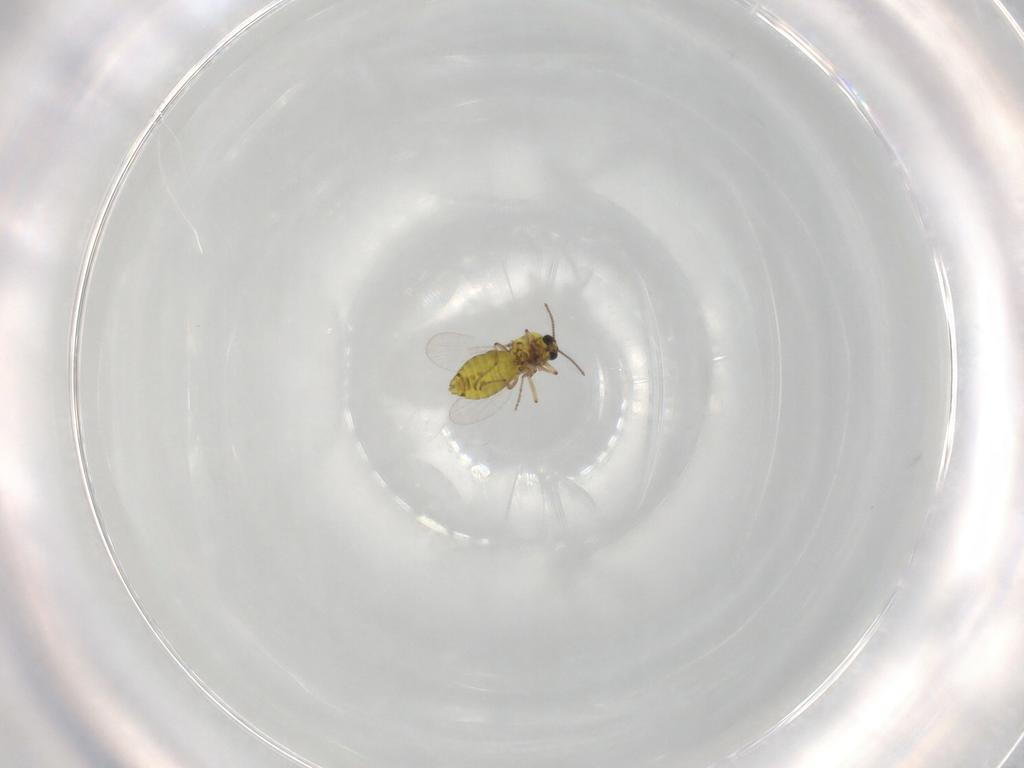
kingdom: Animalia
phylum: Arthropoda
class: Insecta
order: Diptera
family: Ceratopogonidae
